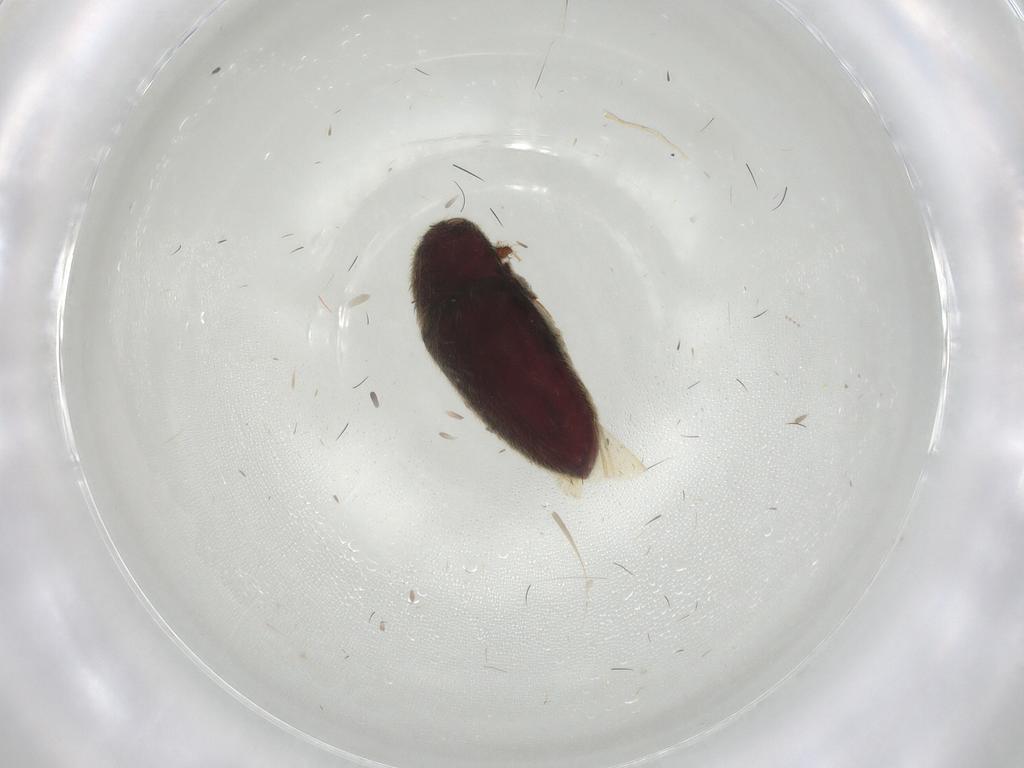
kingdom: Animalia
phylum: Arthropoda
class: Insecta
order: Coleoptera
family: Throscidae
